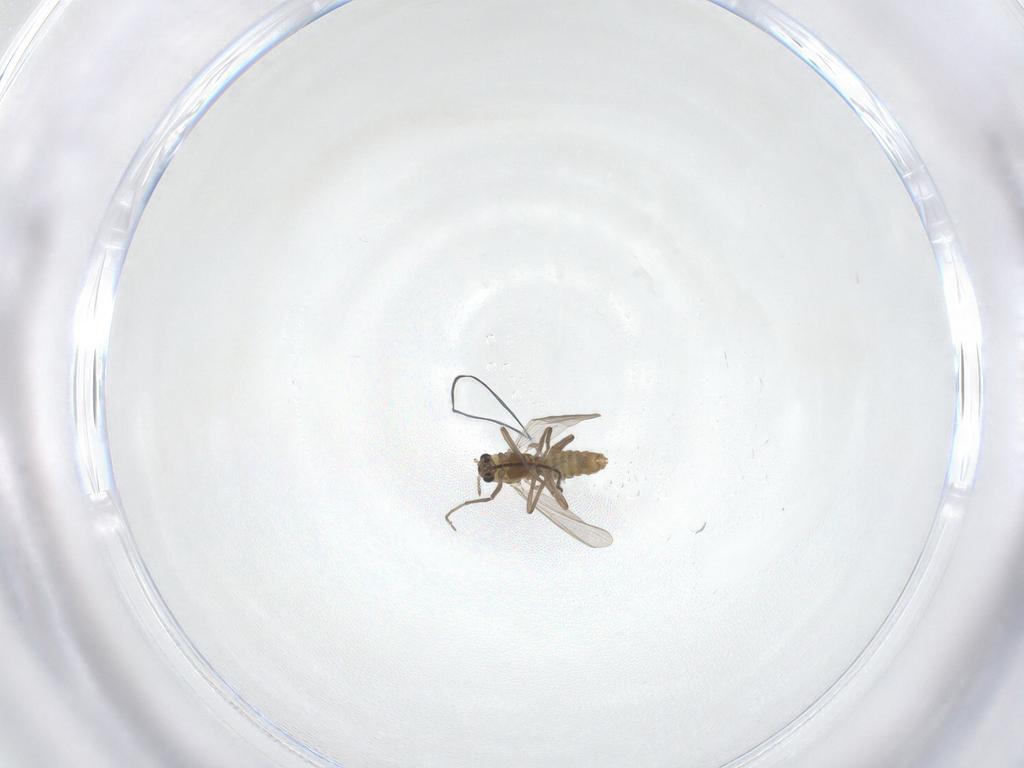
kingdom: Animalia
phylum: Arthropoda
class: Insecta
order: Diptera
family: Chironomidae
